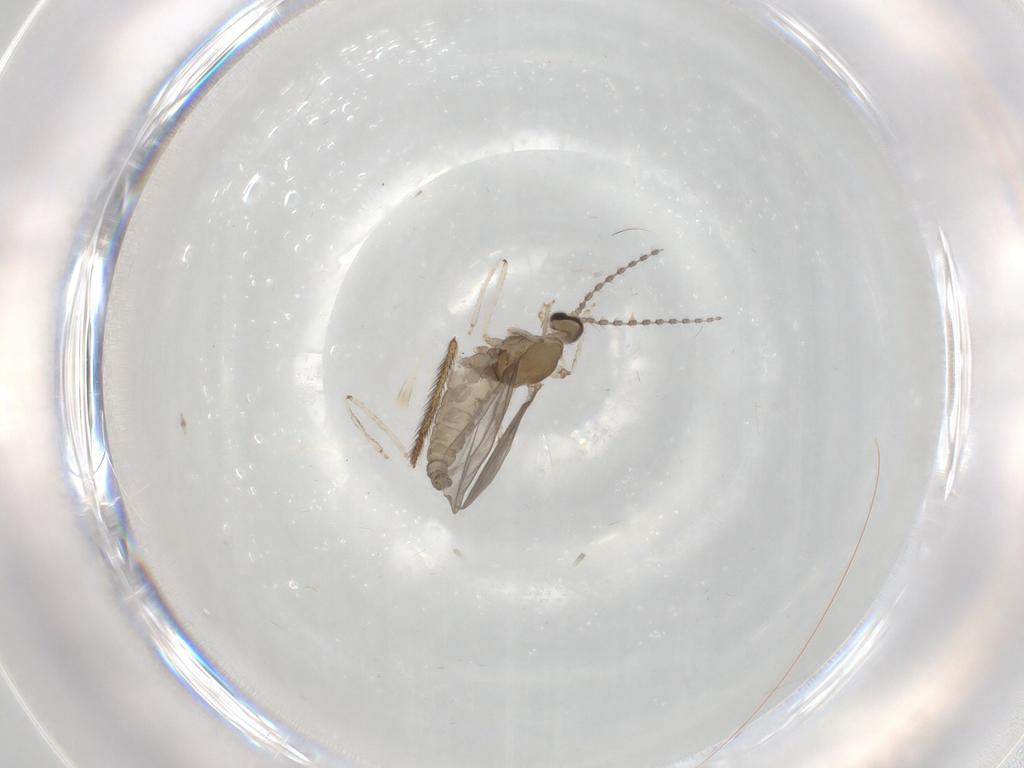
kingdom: Animalia
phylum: Arthropoda
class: Insecta
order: Diptera
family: Cecidomyiidae
